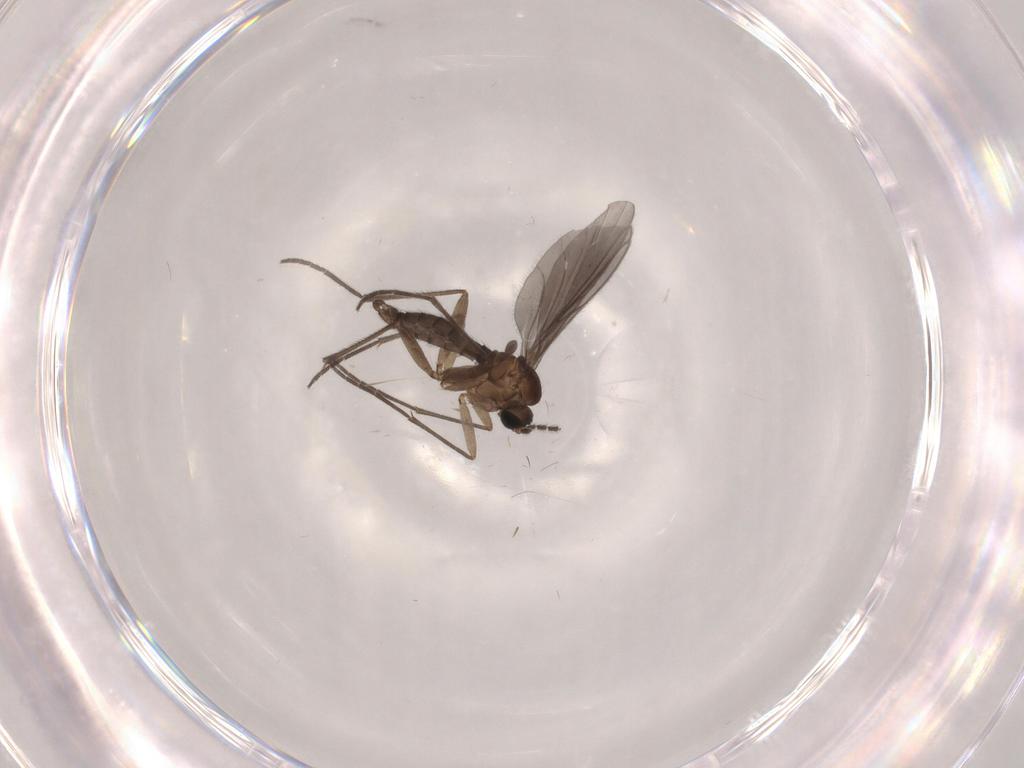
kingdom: Animalia
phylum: Arthropoda
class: Insecta
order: Diptera
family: Sciaridae
